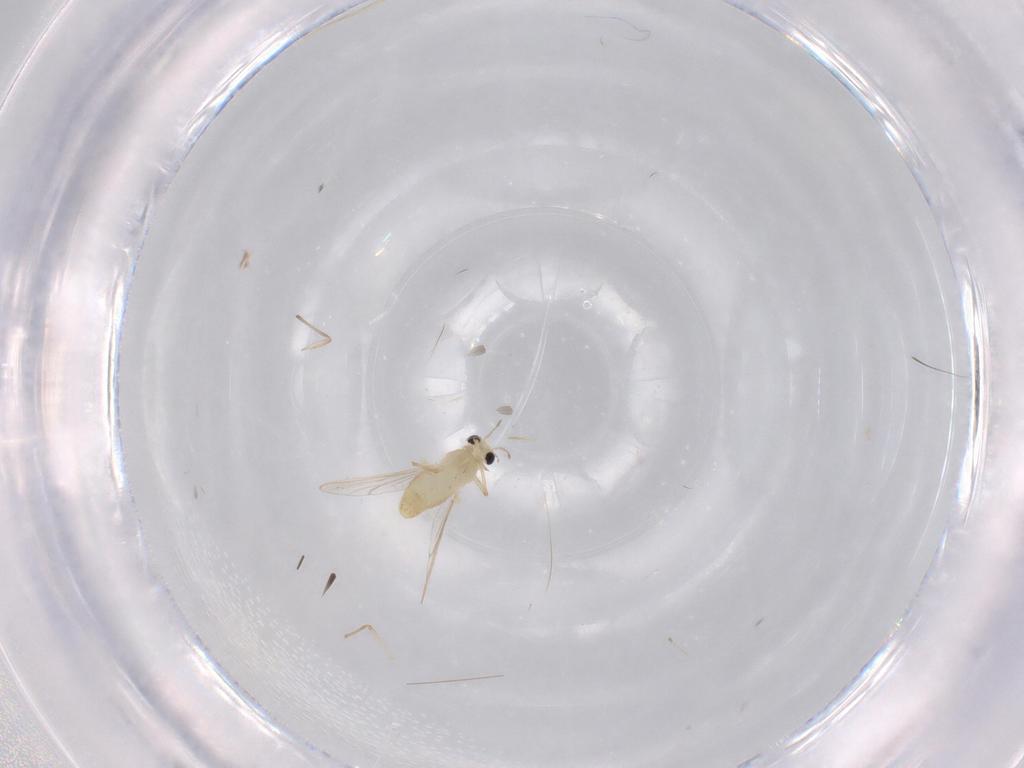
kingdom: Animalia
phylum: Arthropoda
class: Insecta
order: Diptera
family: Chironomidae
